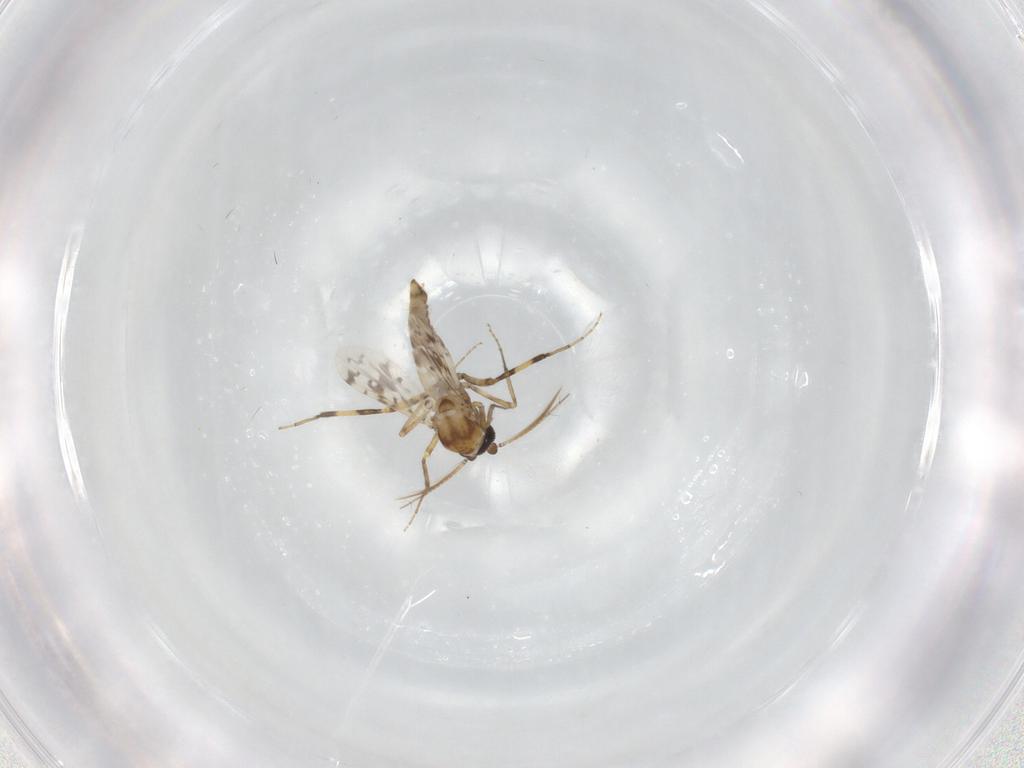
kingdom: Animalia
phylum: Arthropoda
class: Insecta
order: Diptera
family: Ceratopogonidae
